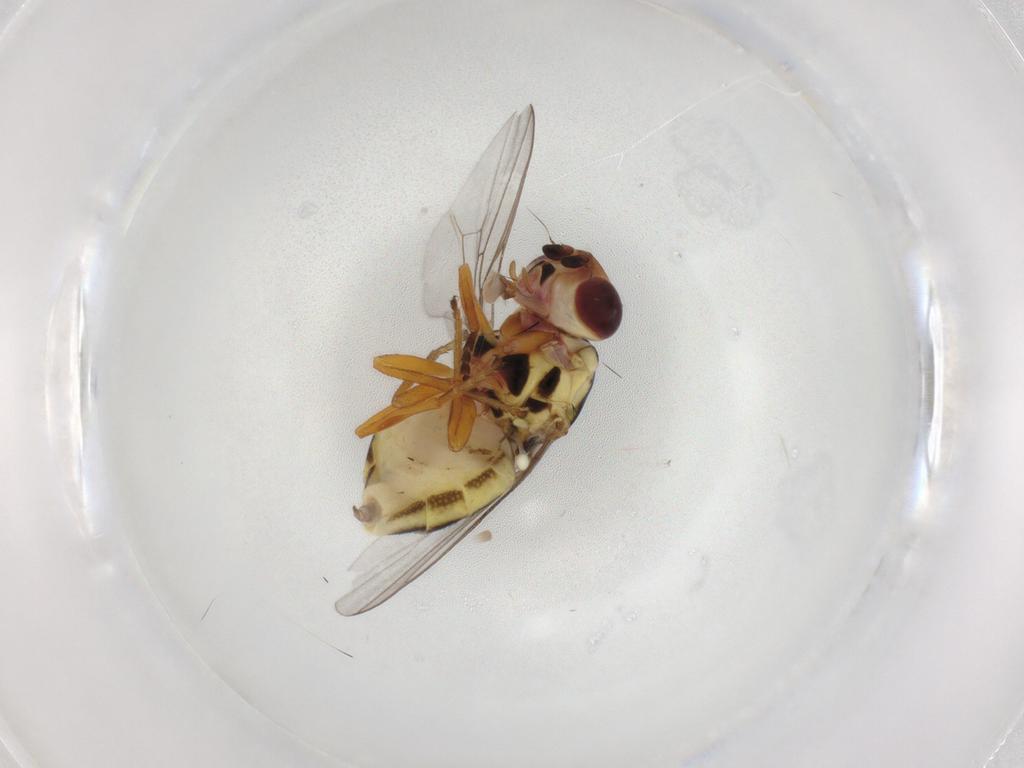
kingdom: Animalia
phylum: Arthropoda
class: Insecta
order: Diptera
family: Chloropidae
